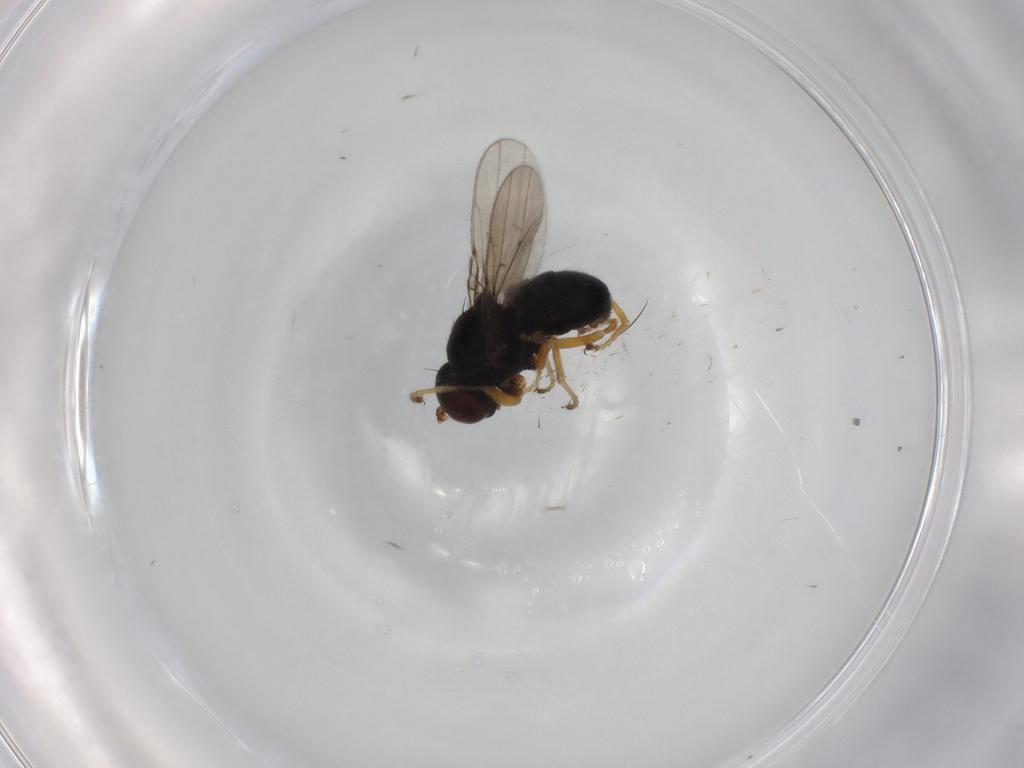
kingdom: Animalia
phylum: Arthropoda
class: Insecta
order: Diptera
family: Ephydridae
